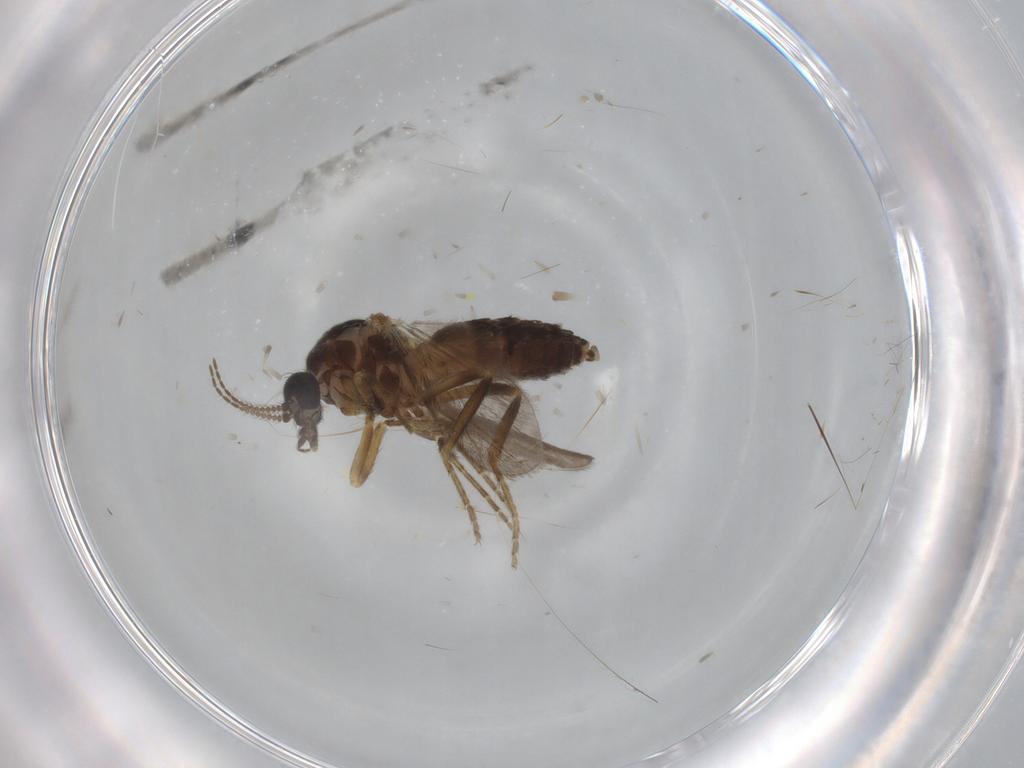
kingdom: Animalia
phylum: Arthropoda
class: Insecta
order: Diptera
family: Ceratopogonidae
